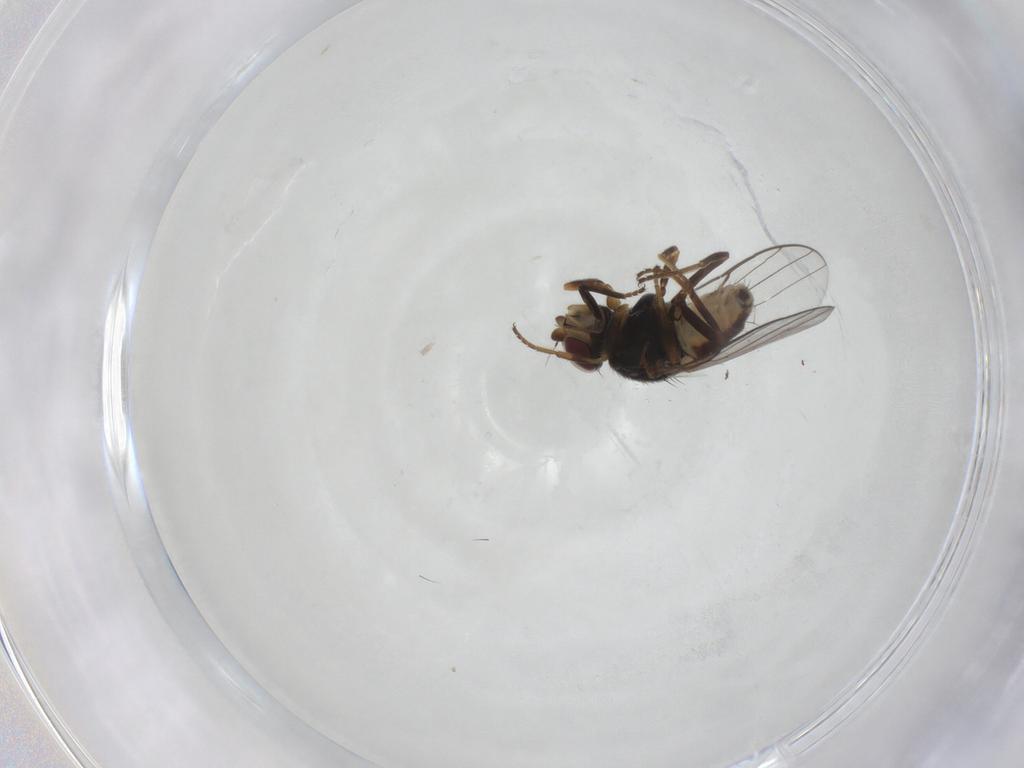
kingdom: Animalia
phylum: Arthropoda
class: Insecta
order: Diptera
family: Chloropidae
